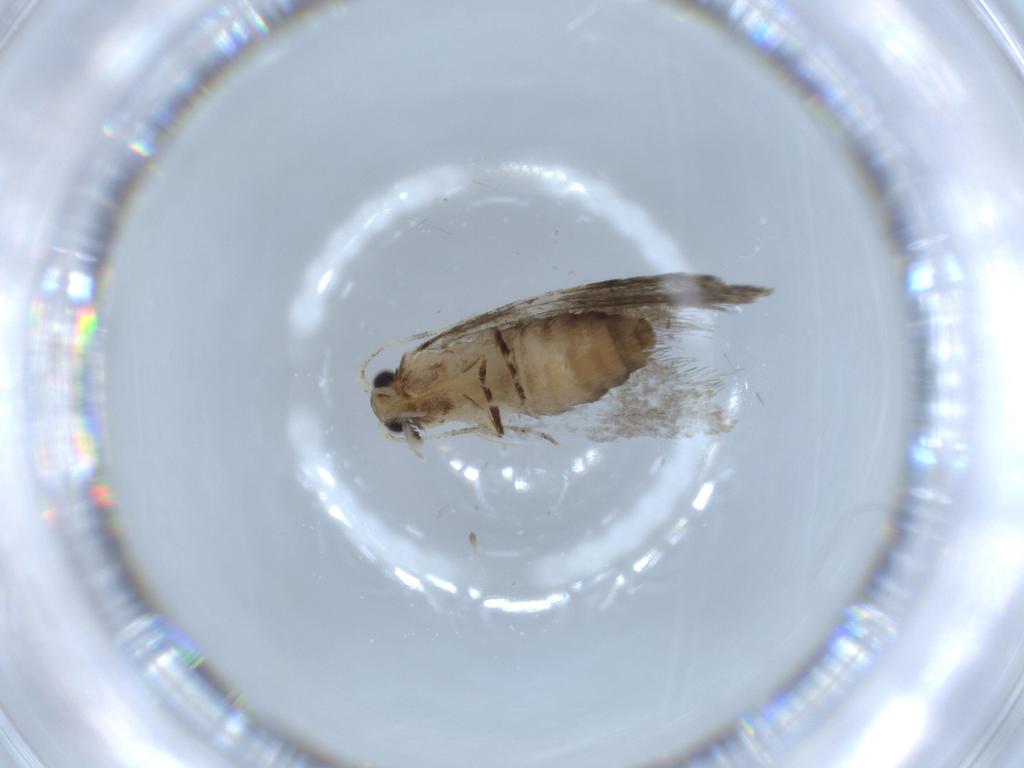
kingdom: Animalia
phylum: Arthropoda
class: Insecta
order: Lepidoptera
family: Tineidae
